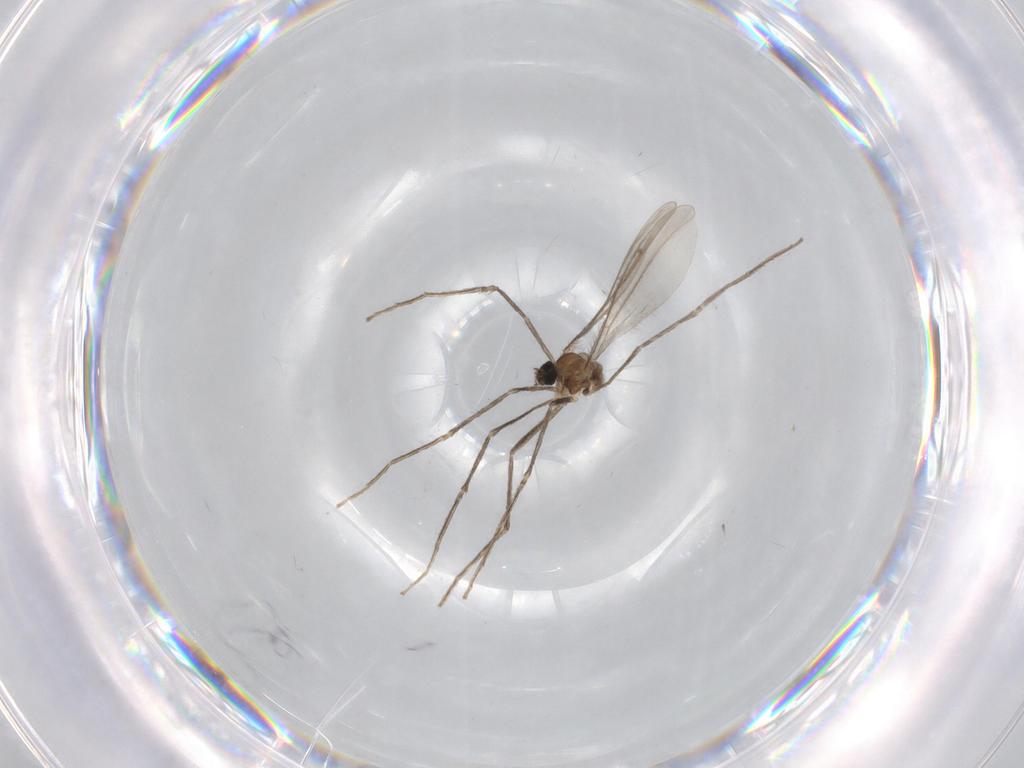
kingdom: Animalia
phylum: Arthropoda
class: Insecta
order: Diptera
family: Cecidomyiidae
